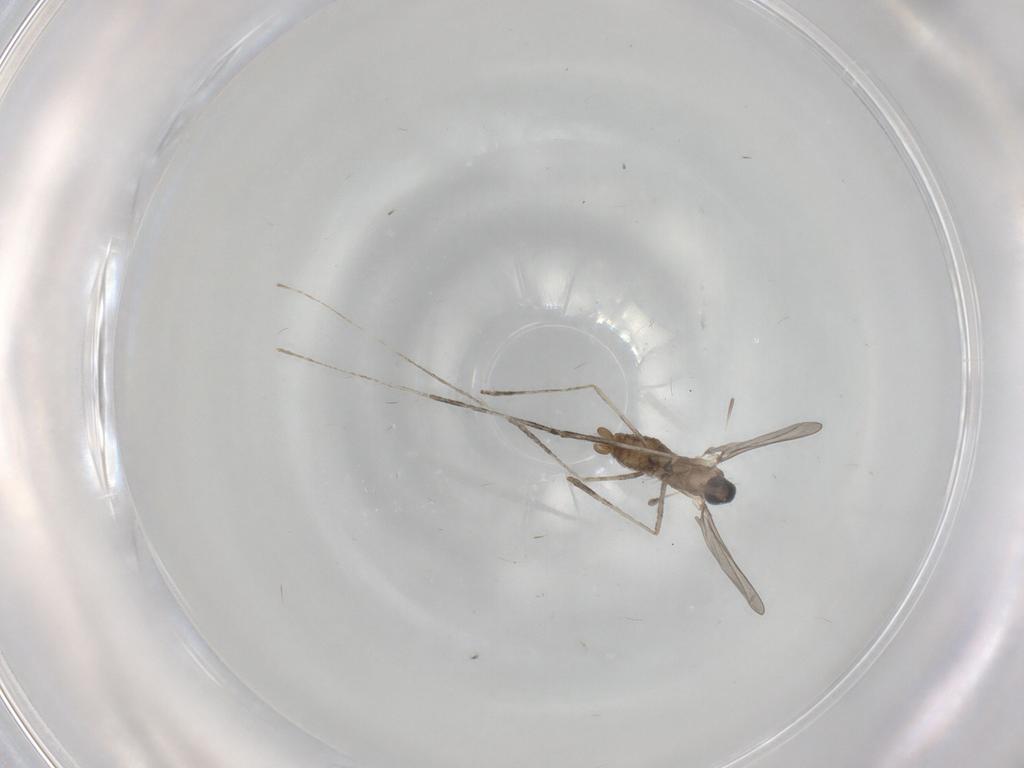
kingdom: Animalia
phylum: Arthropoda
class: Insecta
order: Diptera
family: Cecidomyiidae
